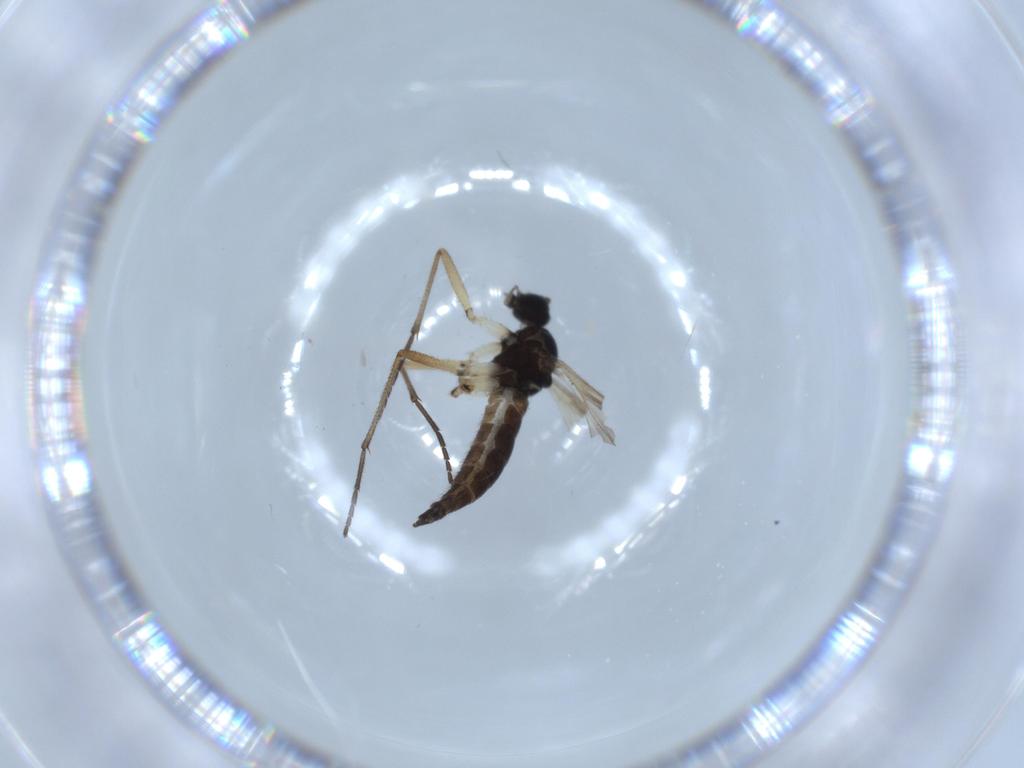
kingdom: Animalia
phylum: Arthropoda
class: Insecta
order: Diptera
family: Sciaridae
